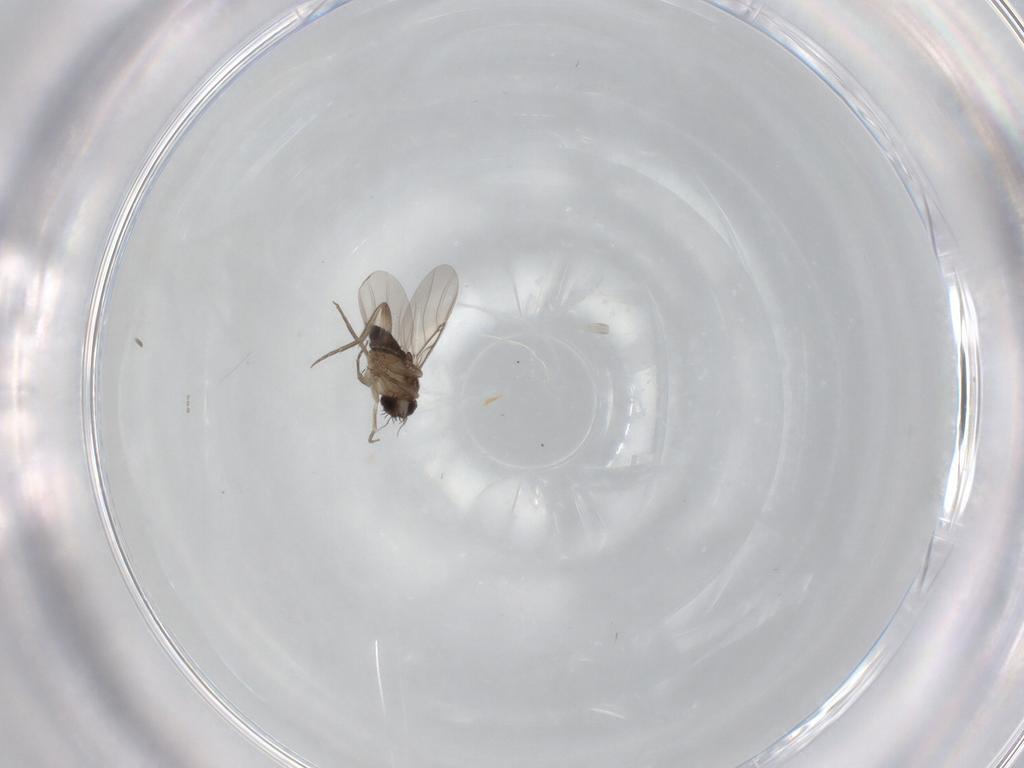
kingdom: Animalia
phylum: Arthropoda
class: Insecta
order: Diptera
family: Phoridae
